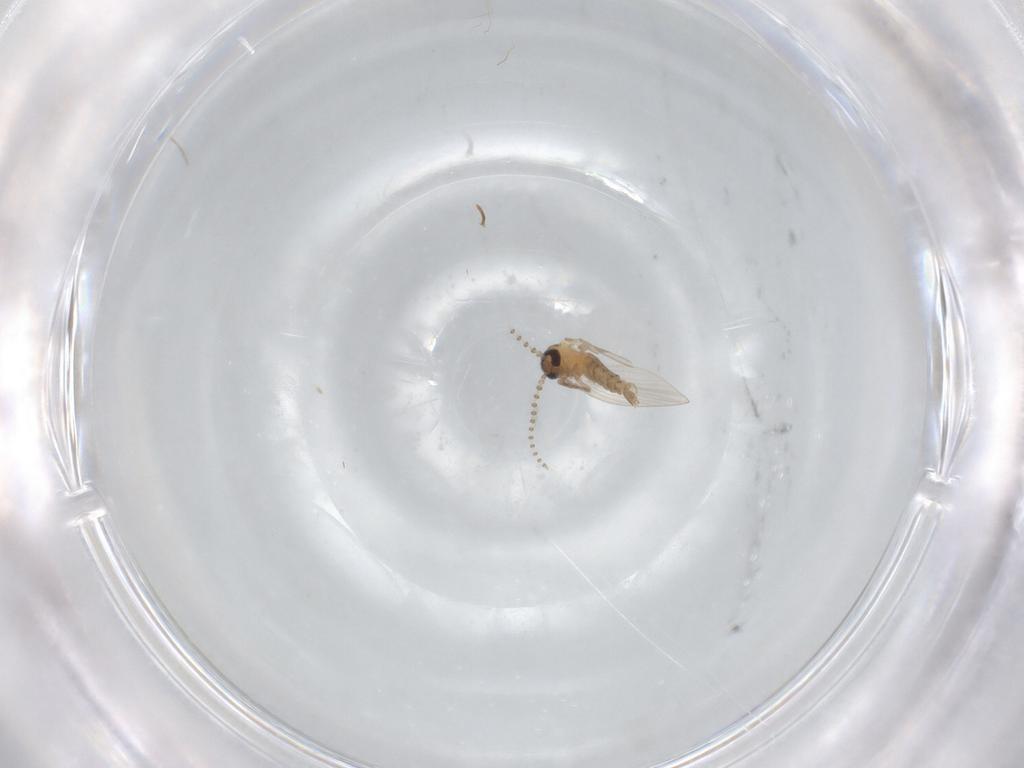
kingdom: Animalia
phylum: Arthropoda
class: Insecta
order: Diptera
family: Psychodidae
